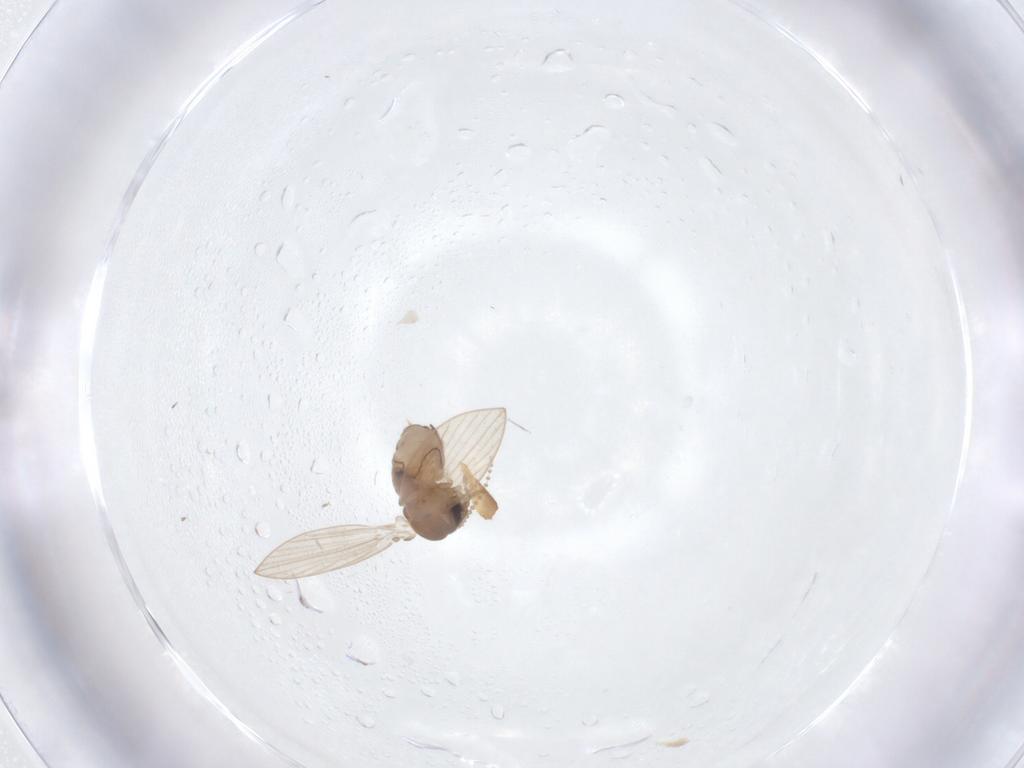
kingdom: Animalia
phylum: Arthropoda
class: Insecta
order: Diptera
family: Psychodidae
